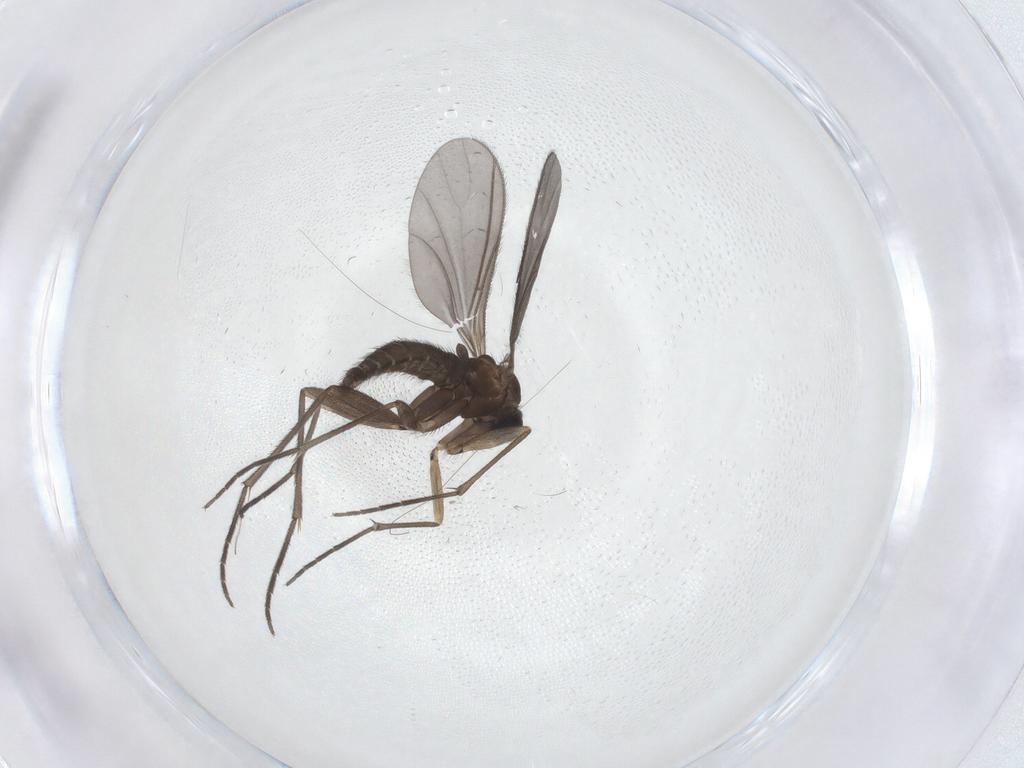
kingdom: Animalia
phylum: Arthropoda
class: Insecta
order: Diptera
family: Sciaridae
